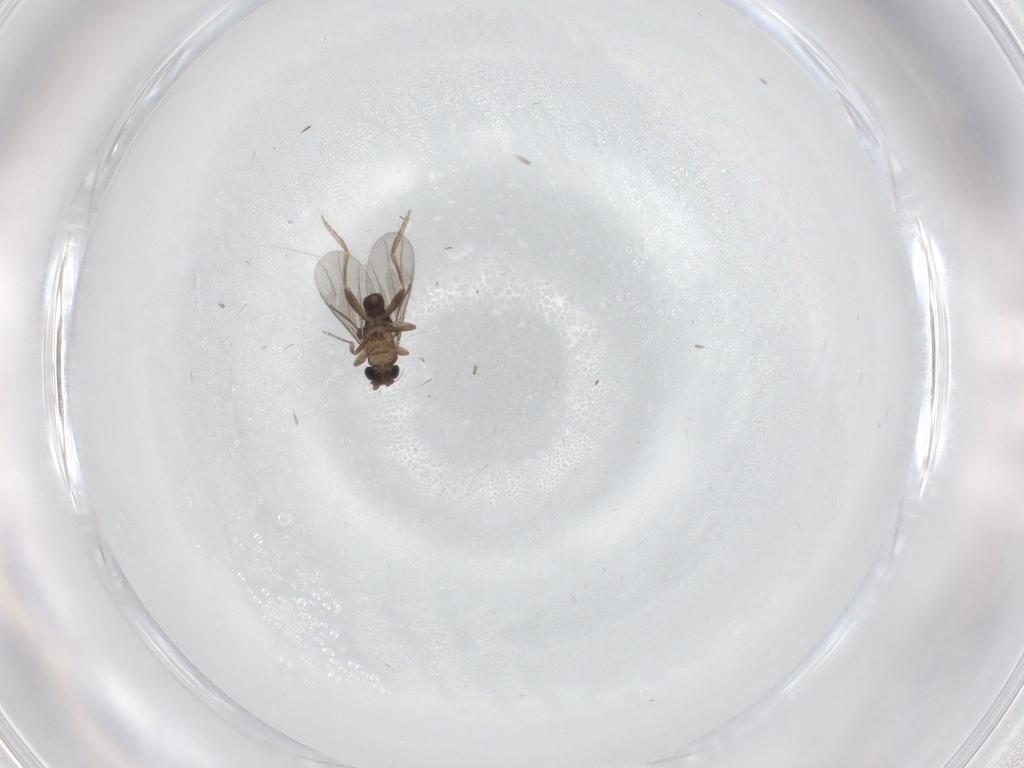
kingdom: Animalia
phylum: Arthropoda
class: Insecta
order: Diptera
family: Cecidomyiidae
